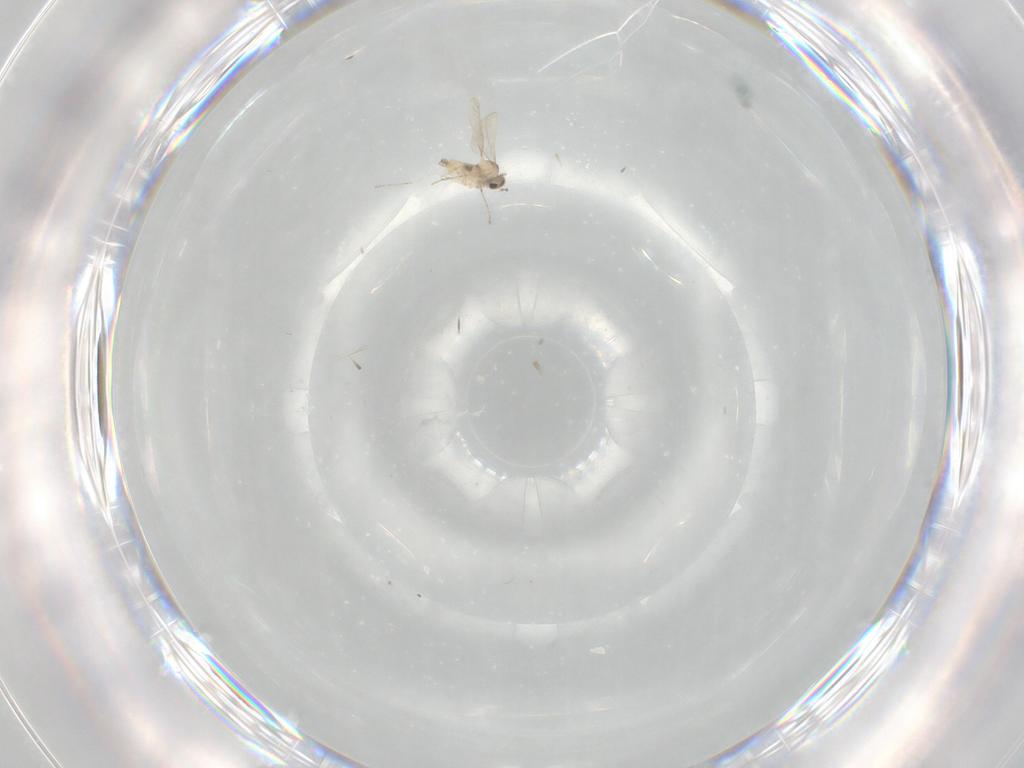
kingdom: Animalia
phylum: Arthropoda
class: Insecta
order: Diptera
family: Cecidomyiidae
